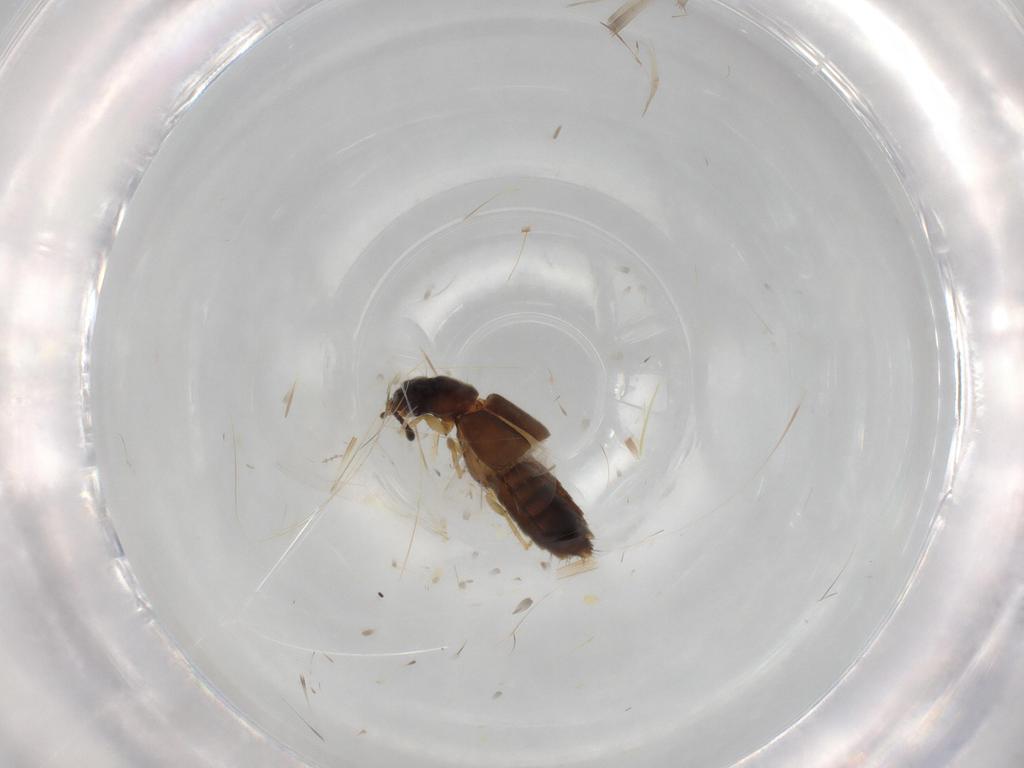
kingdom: Animalia
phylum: Arthropoda
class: Insecta
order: Coleoptera
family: Staphylinidae
